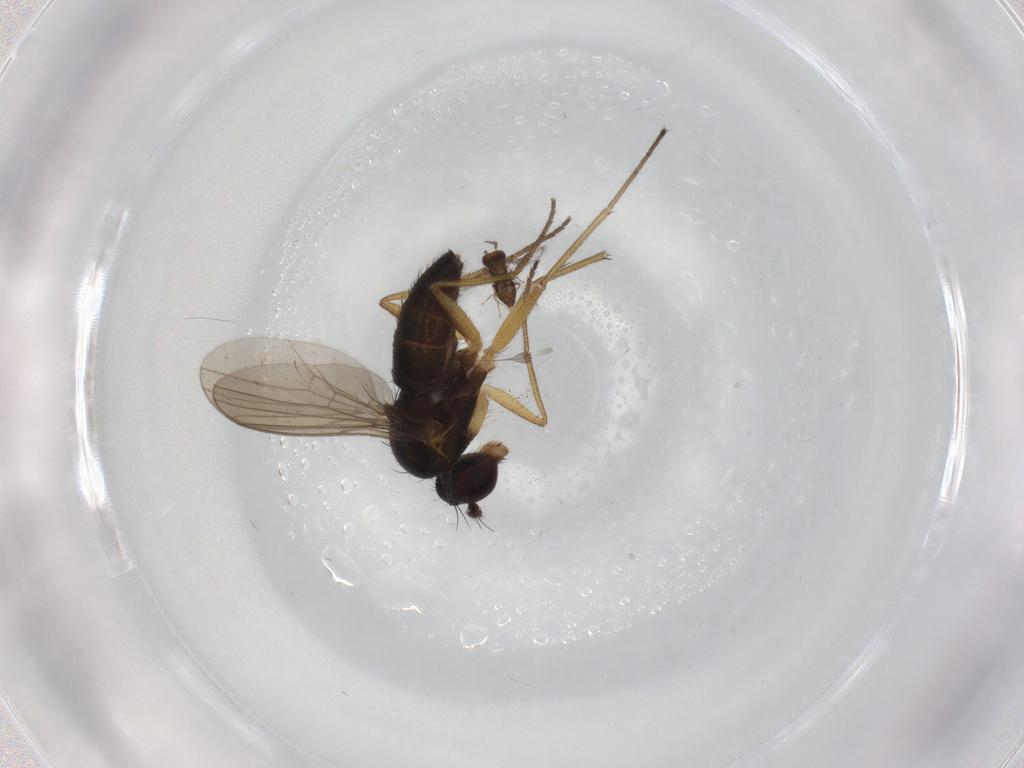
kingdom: Animalia
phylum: Arthropoda
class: Insecta
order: Diptera
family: Dolichopodidae
